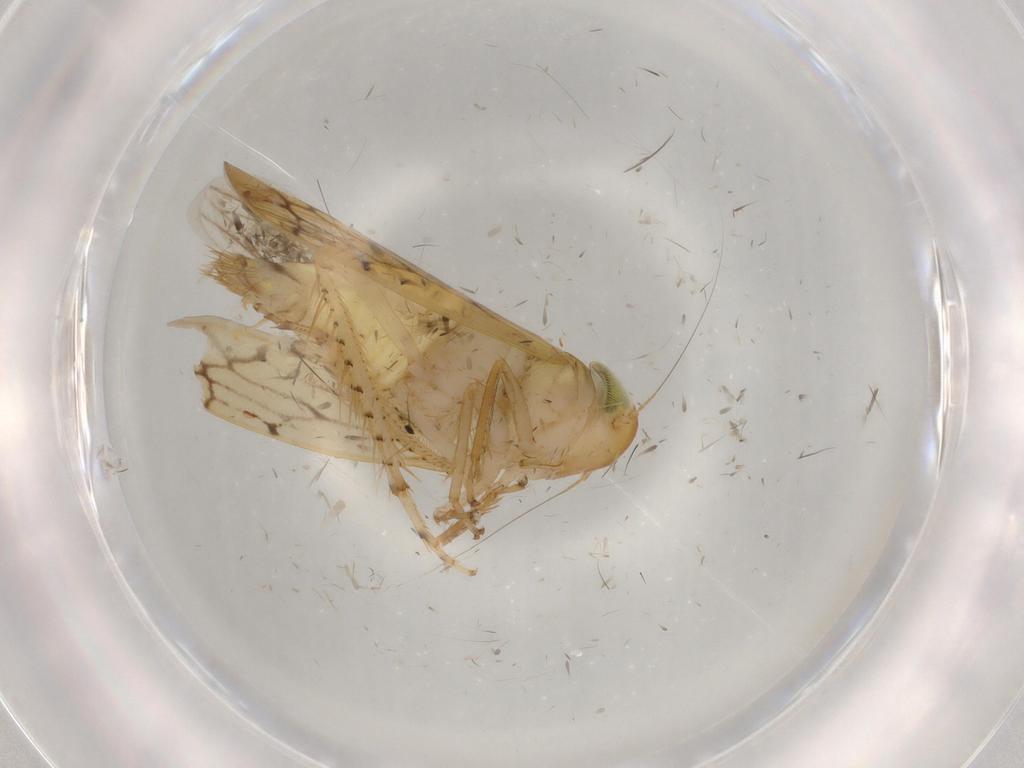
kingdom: Animalia
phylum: Arthropoda
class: Insecta
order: Hemiptera
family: Cicadellidae
